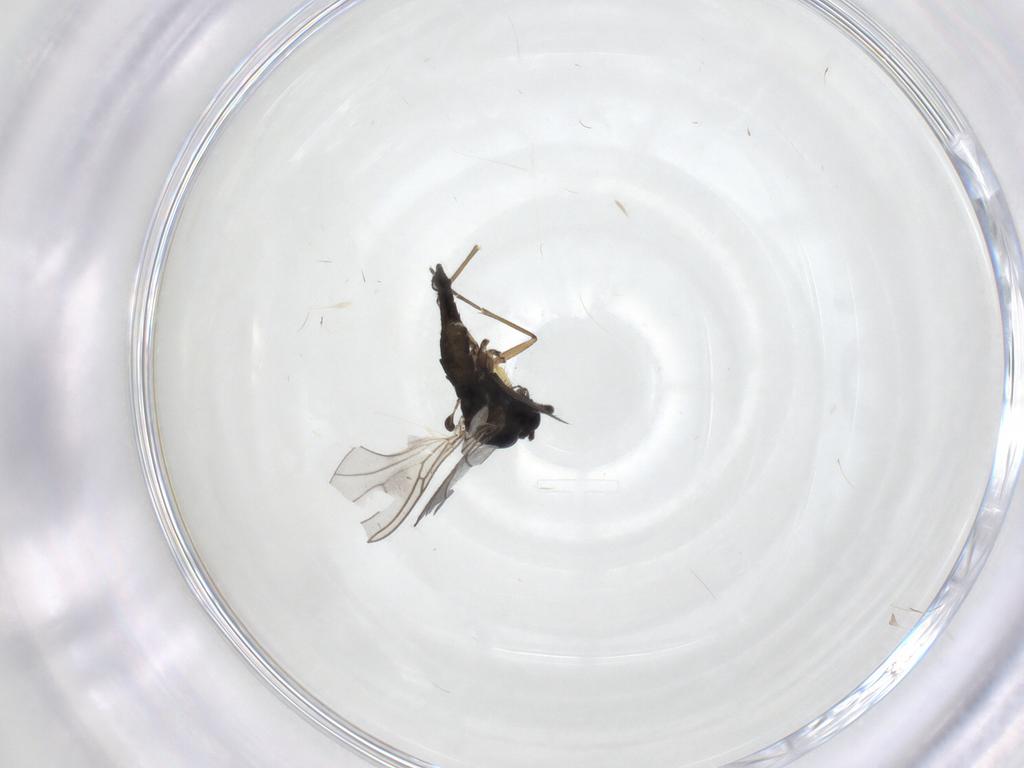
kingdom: Animalia
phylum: Arthropoda
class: Insecta
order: Diptera
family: Sciaridae
